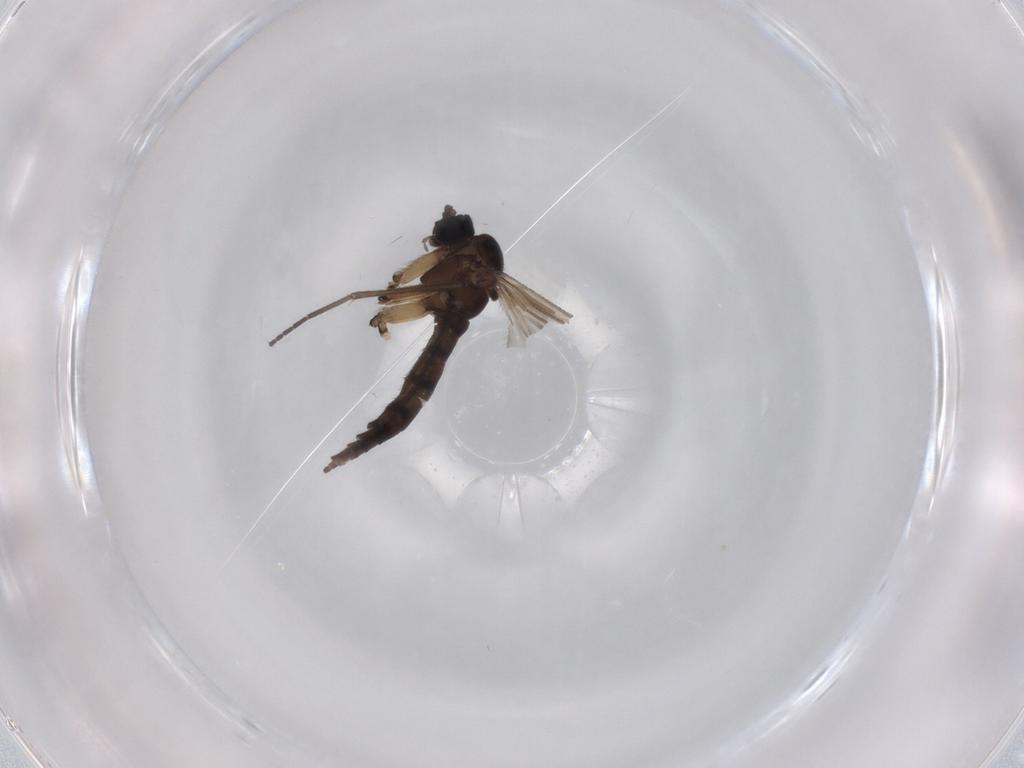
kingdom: Animalia
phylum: Arthropoda
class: Insecta
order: Diptera
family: Sciaridae
